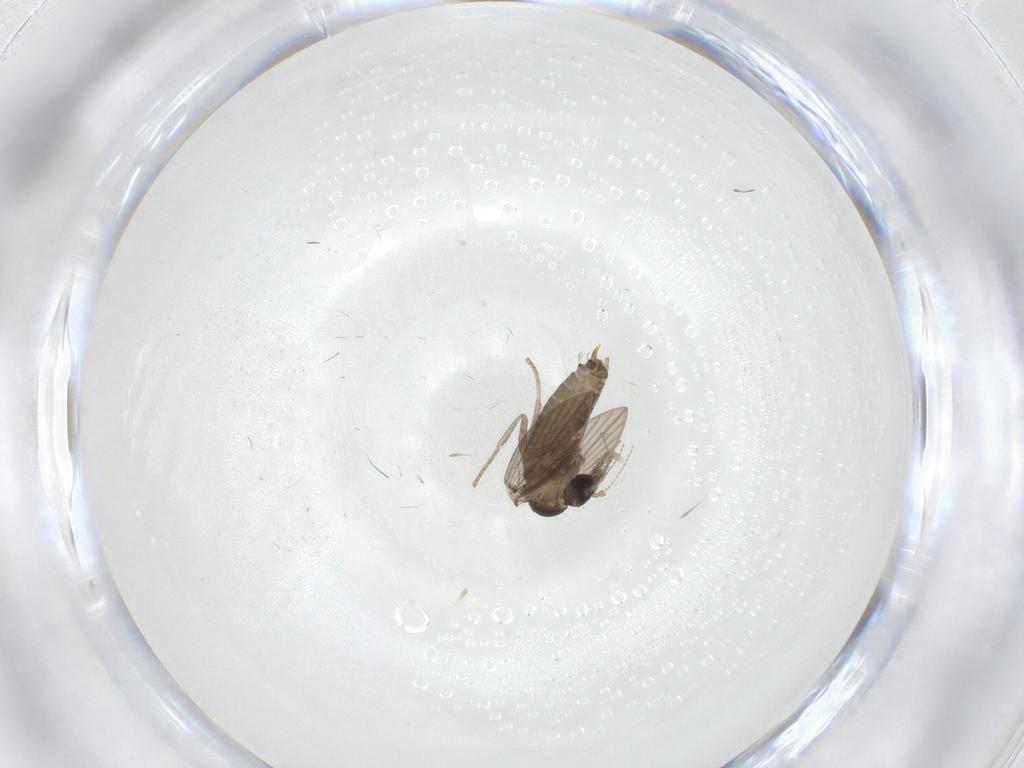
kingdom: Animalia
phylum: Arthropoda
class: Insecta
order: Diptera
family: Psychodidae
